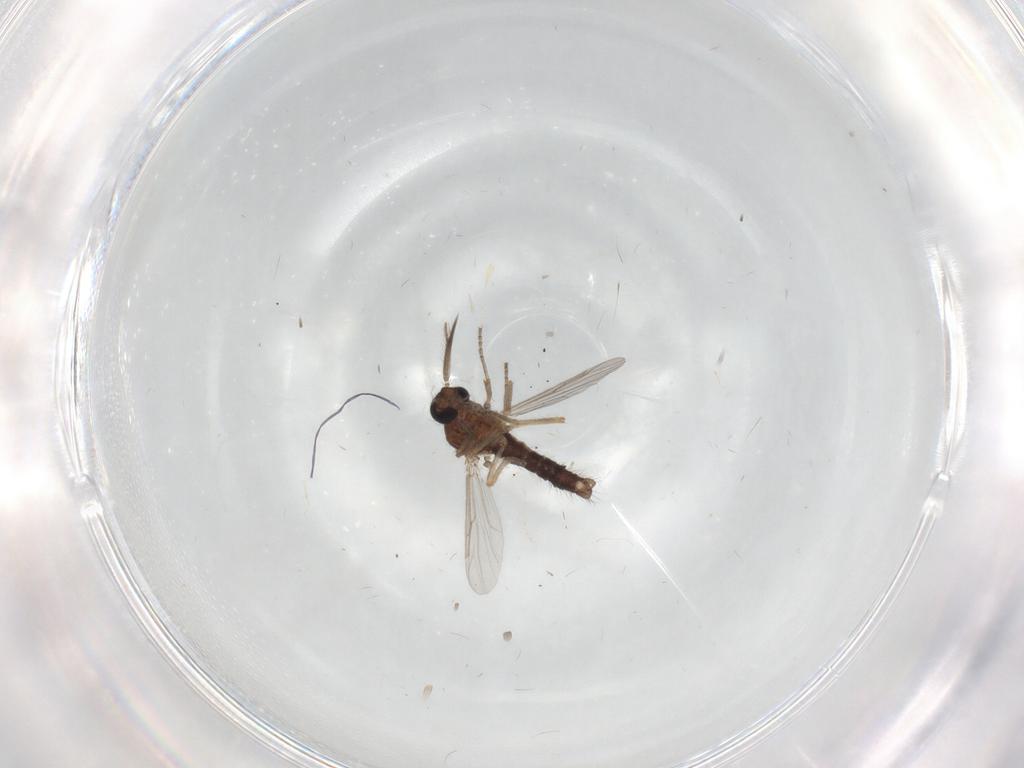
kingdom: Animalia
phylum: Arthropoda
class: Insecta
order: Diptera
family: Ceratopogonidae
